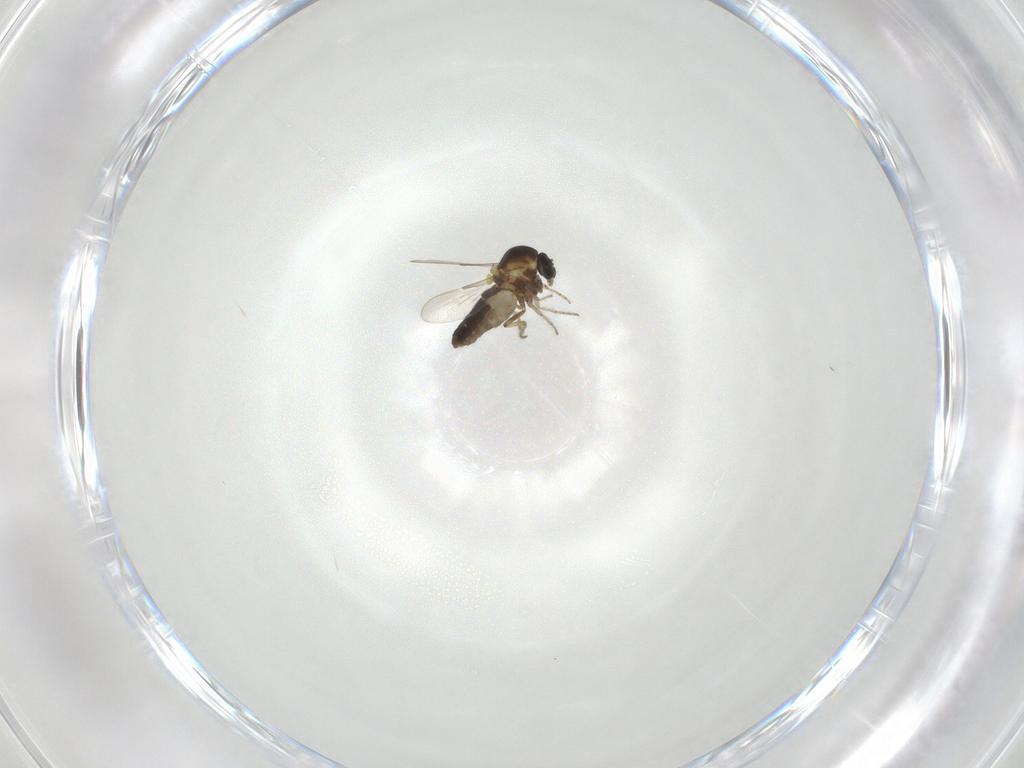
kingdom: Animalia
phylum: Arthropoda
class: Insecta
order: Diptera
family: Ceratopogonidae
